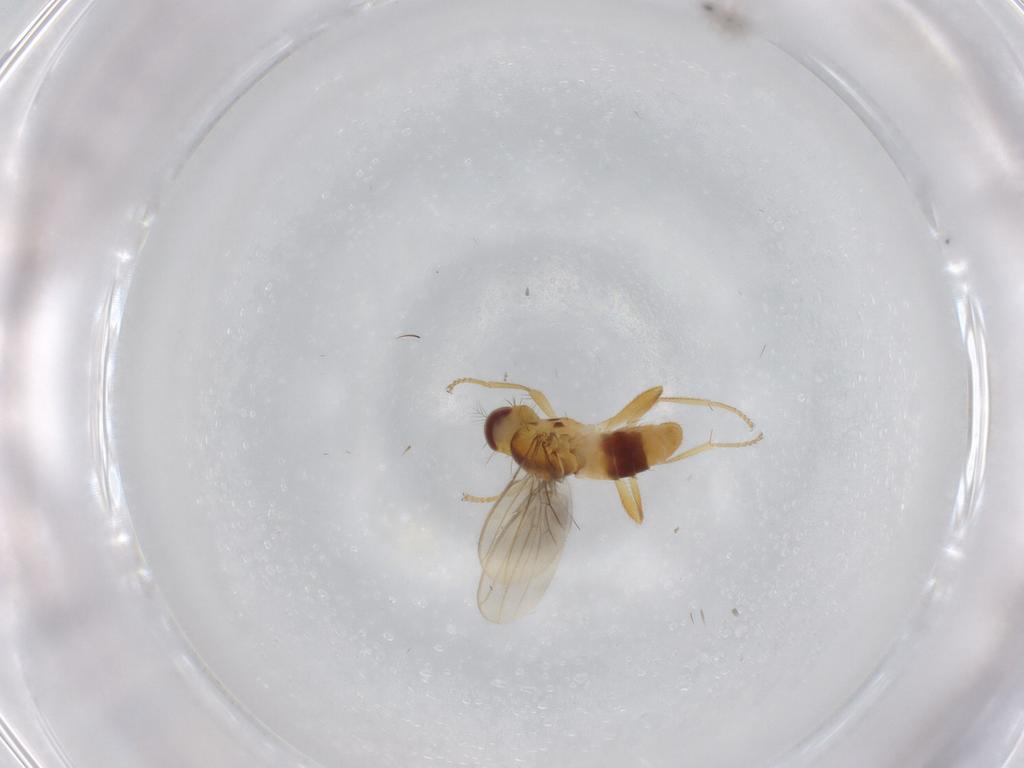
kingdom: Animalia
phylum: Arthropoda
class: Insecta
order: Diptera
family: Periscelididae
